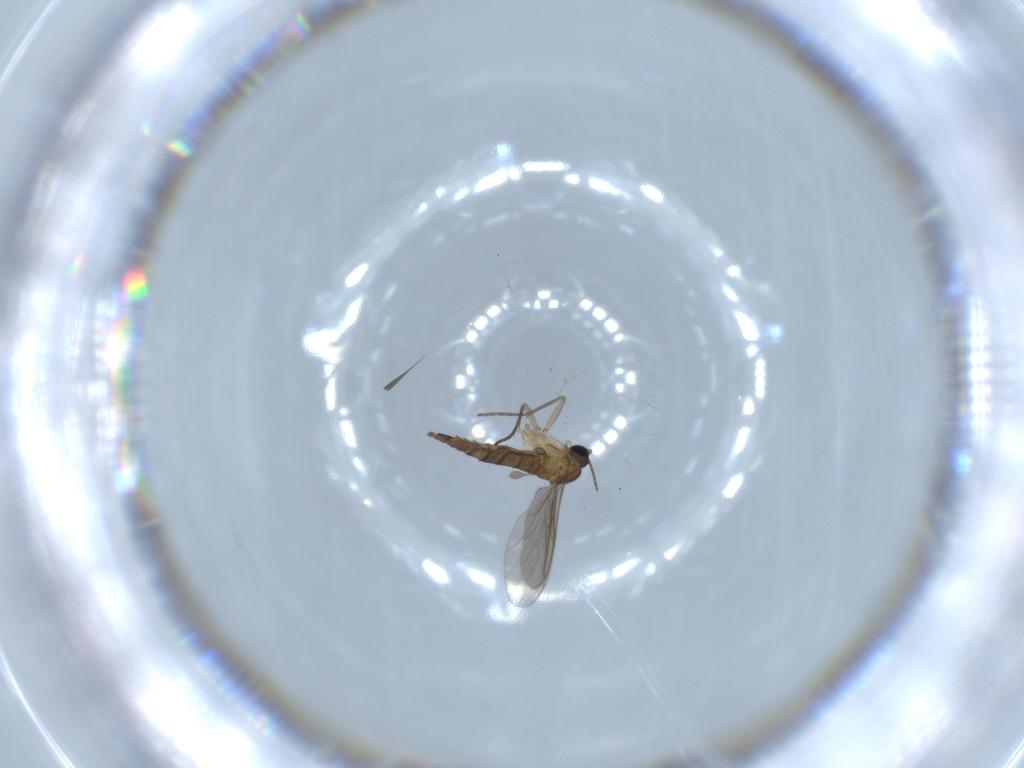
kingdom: Animalia
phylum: Arthropoda
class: Insecta
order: Diptera
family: Sciaridae
